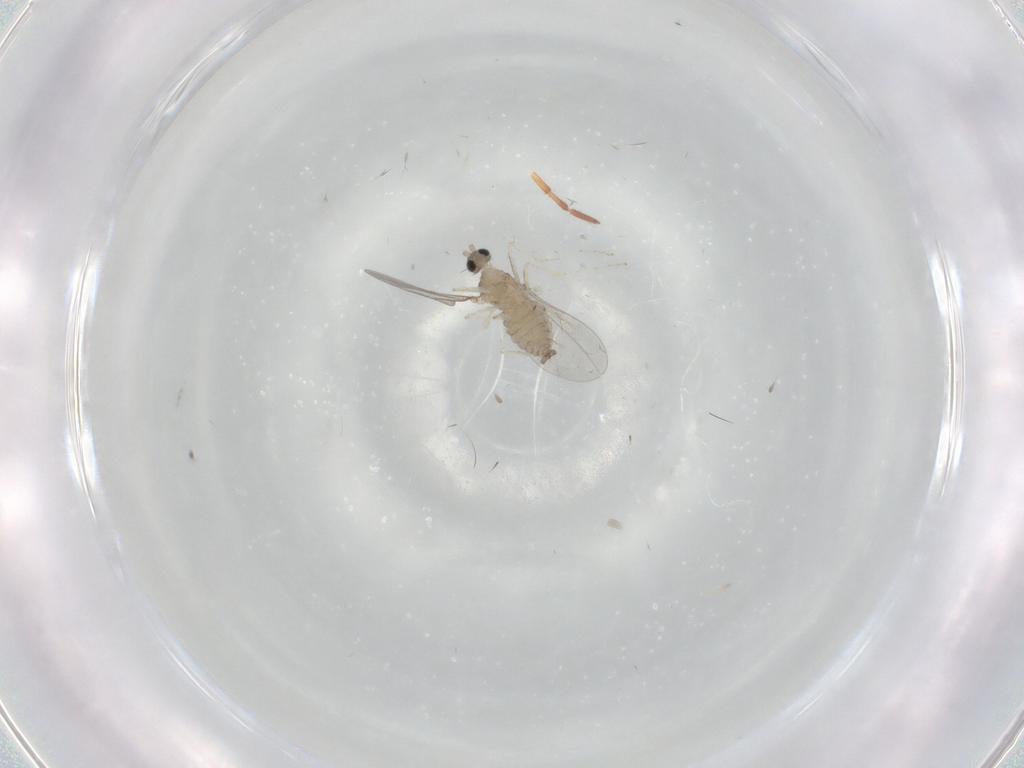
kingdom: Animalia
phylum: Arthropoda
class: Insecta
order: Diptera
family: Cecidomyiidae
